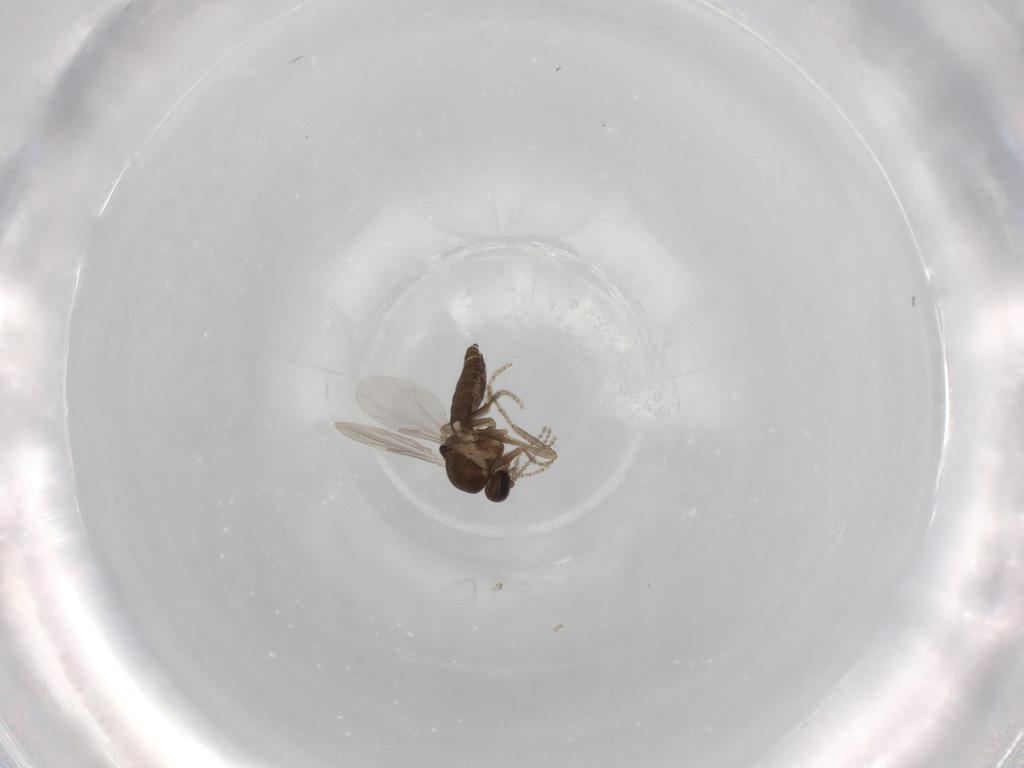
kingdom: Animalia
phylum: Arthropoda
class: Insecta
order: Diptera
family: Ceratopogonidae
